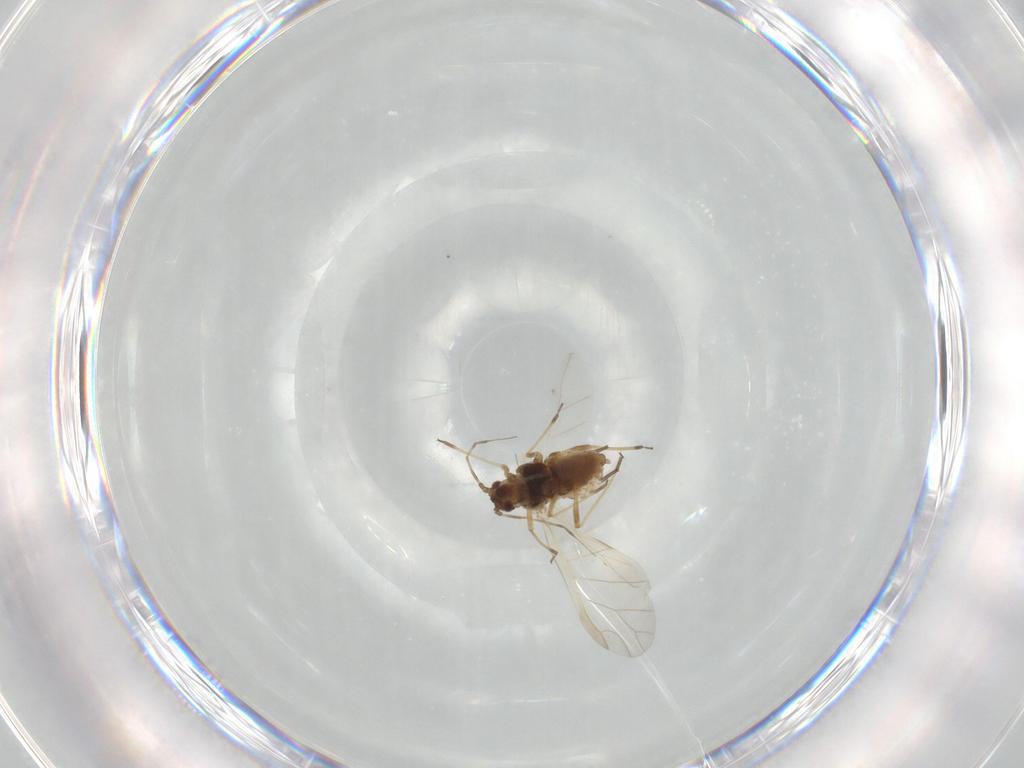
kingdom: Animalia
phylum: Arthropoda
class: Insecta
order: Hemiptera
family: Aphididae
